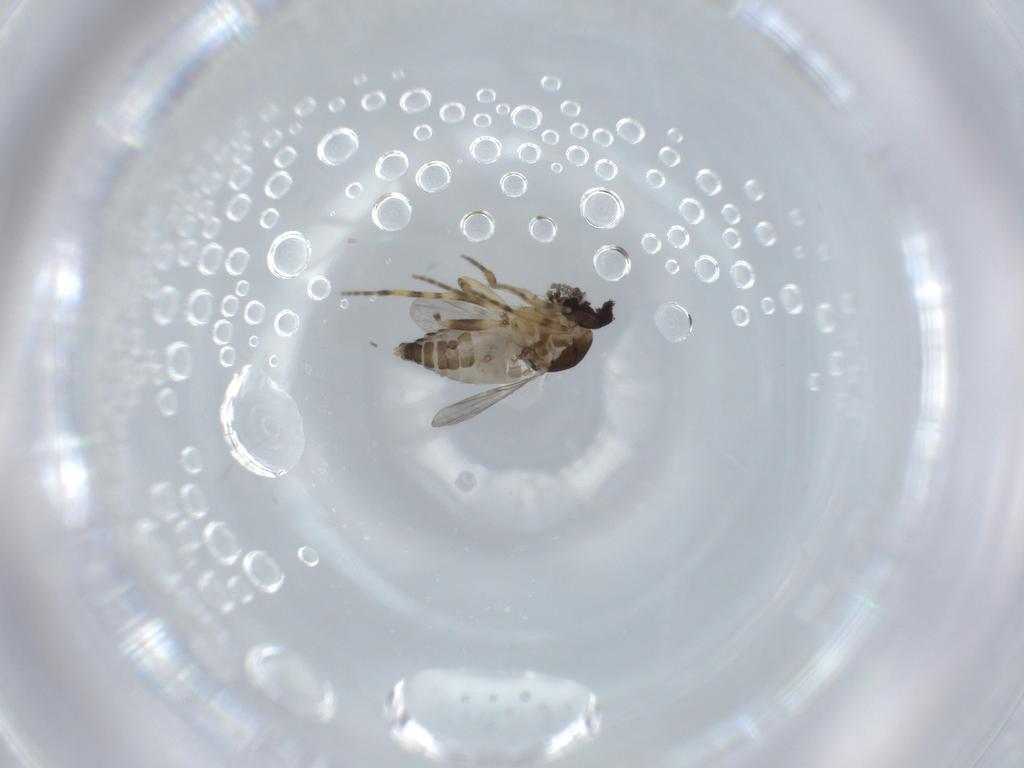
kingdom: Animalia
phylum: Arthropoda
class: Insecta
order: Diptera
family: Ceratopogonidae
